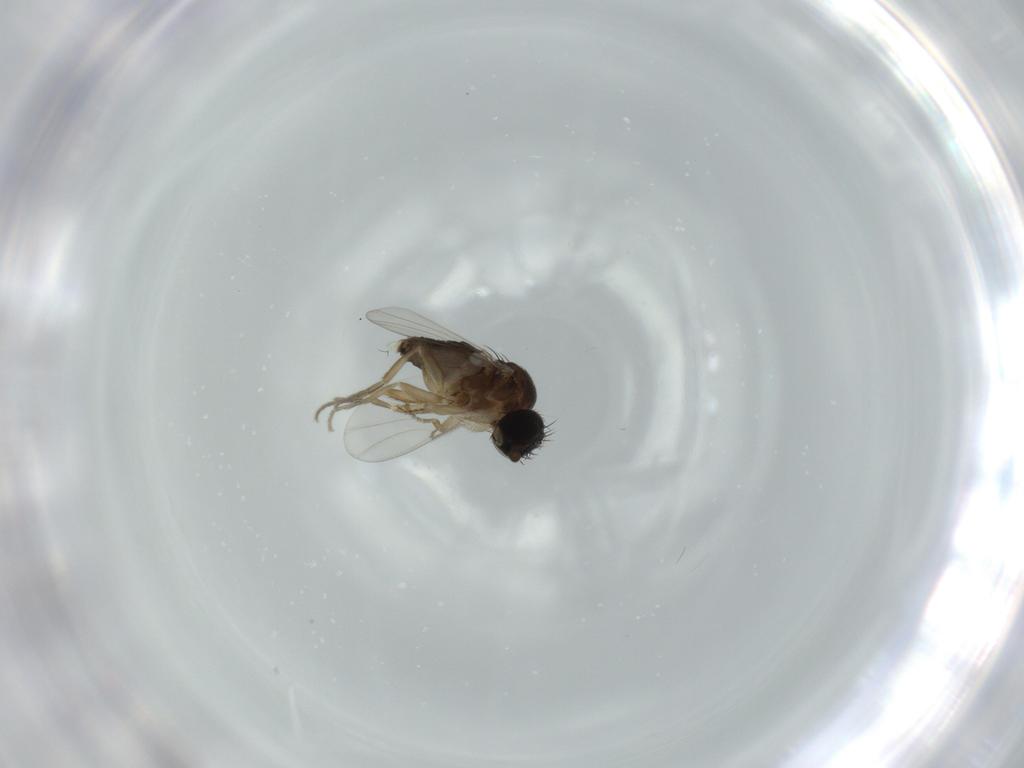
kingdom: Animalia
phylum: Arthropoda
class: Insecta
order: Diptera
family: Phoridae
